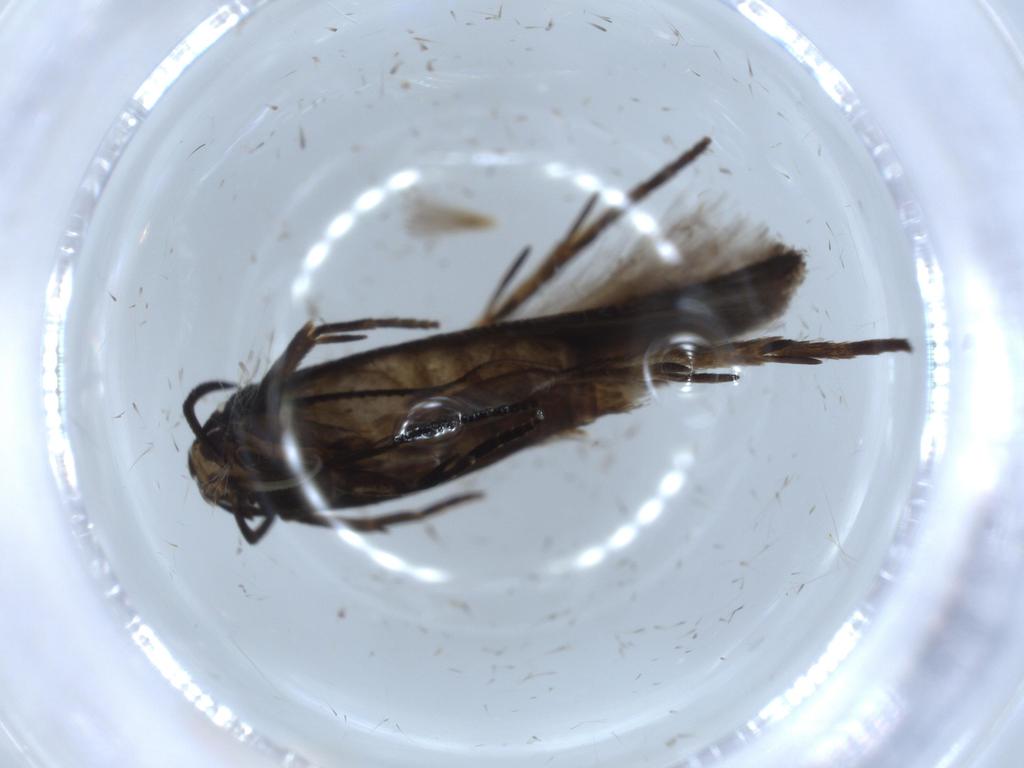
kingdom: Animalia
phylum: Arthropoda
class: Insecta
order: Lepidoptera
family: Cosmopterigidae
